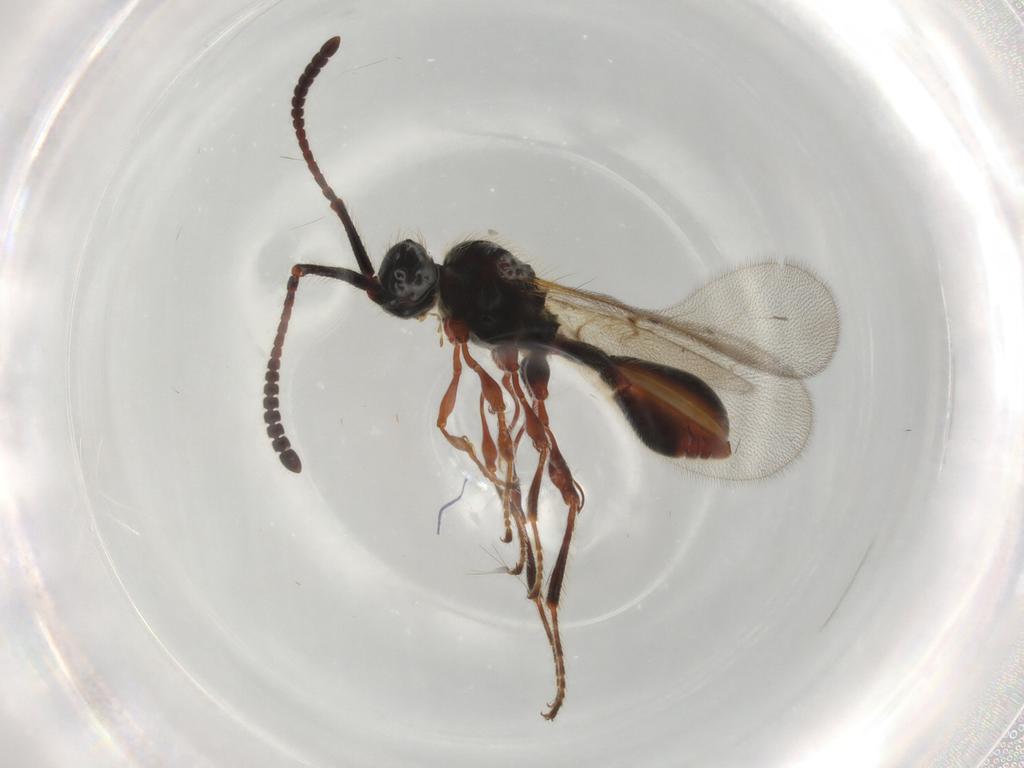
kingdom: Animalia
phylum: Arthropoda
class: Insecta
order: Hymenoptera
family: Diapriidae
